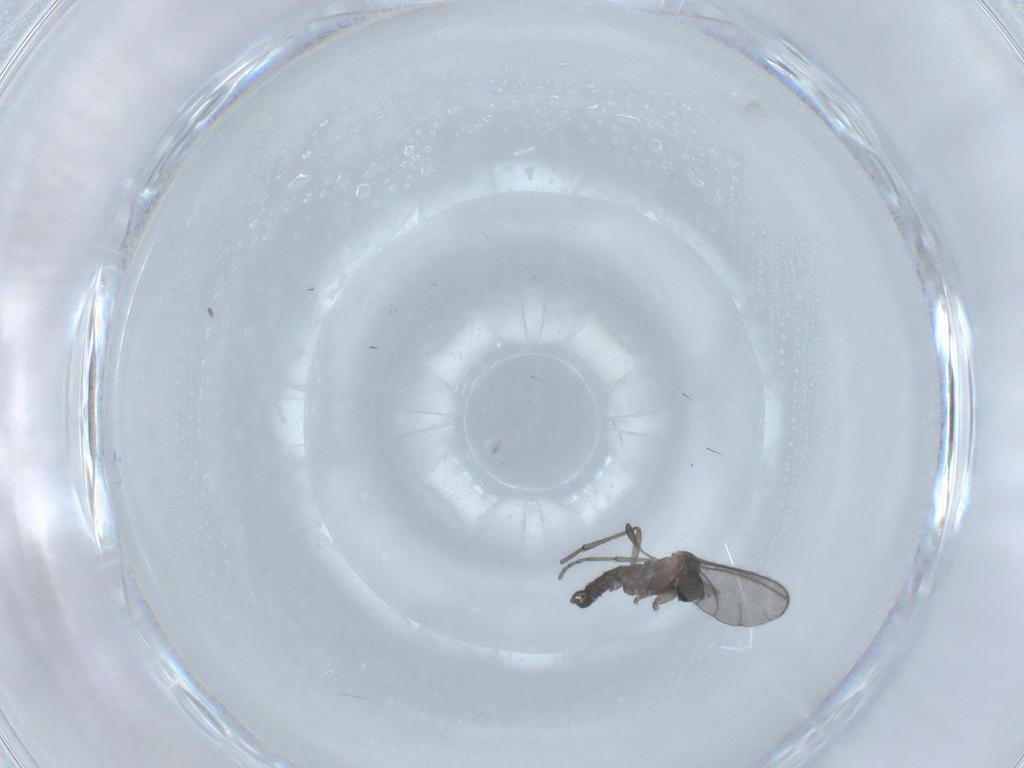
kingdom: Animalia
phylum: Arthropoda
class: Insecta
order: Diptera
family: Sciaridae
